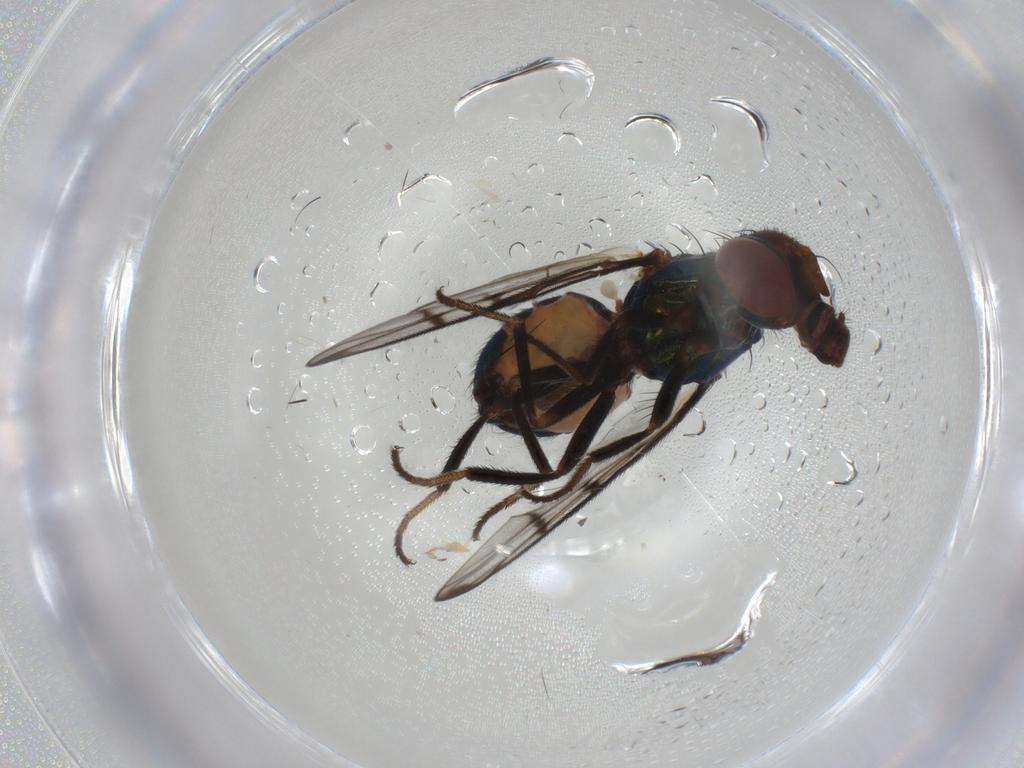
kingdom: Animalia
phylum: Arthropoda
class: Insecta
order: Diptera
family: Platystomatidae
